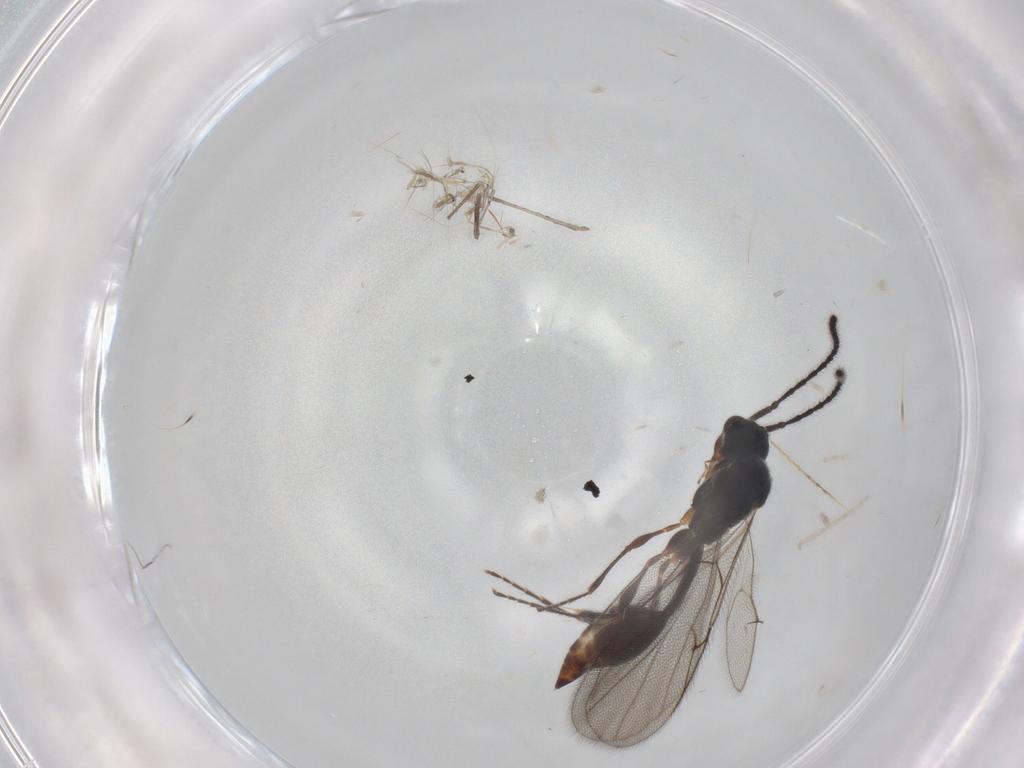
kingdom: Animalia
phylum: Arthropoda
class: Insecta
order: Hymenoptera
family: Diapriidae
